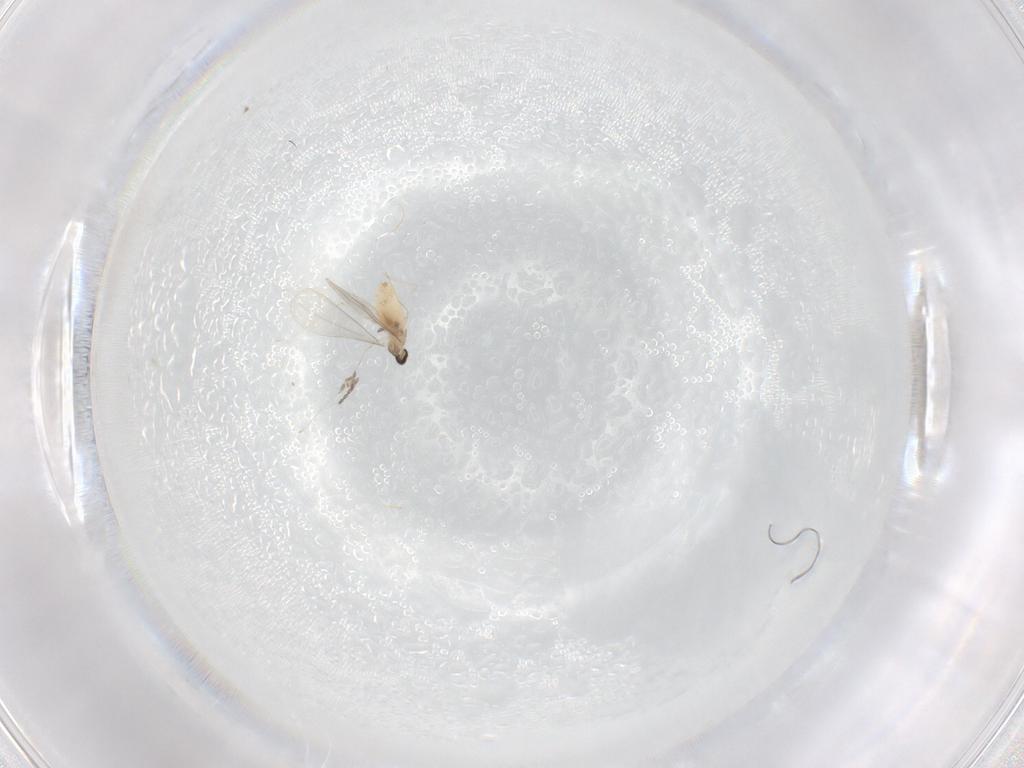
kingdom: Animalia
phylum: Arthropoda
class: Insecta
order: Diptera
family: Cecidomyiidae
